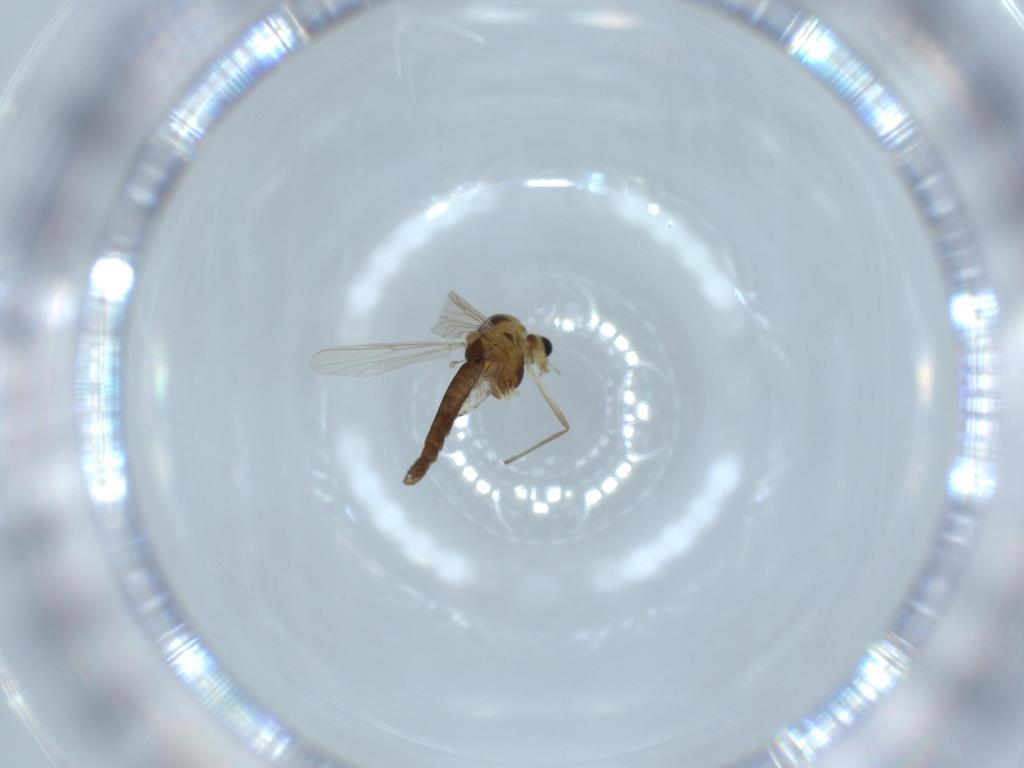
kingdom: Animalia
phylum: Arthropoda
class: Insecta
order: Diptera
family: Chironomidae
